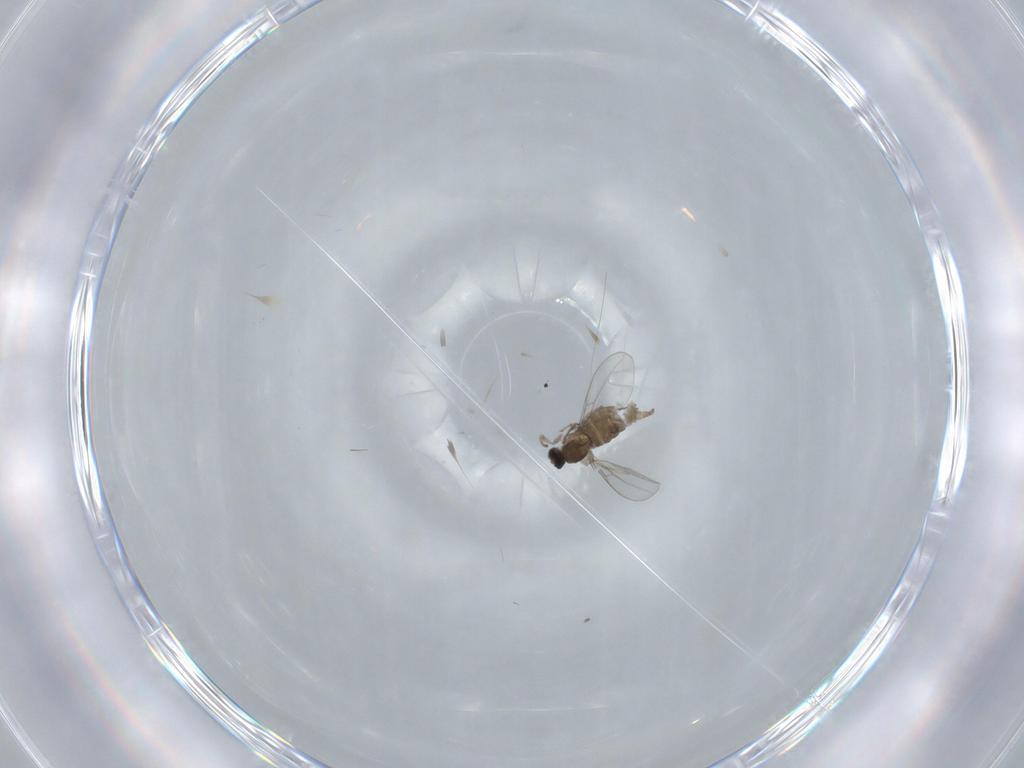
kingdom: Animalia
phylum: Arthropoda
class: Insecta
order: Diptera
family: Cecidomyiidae
